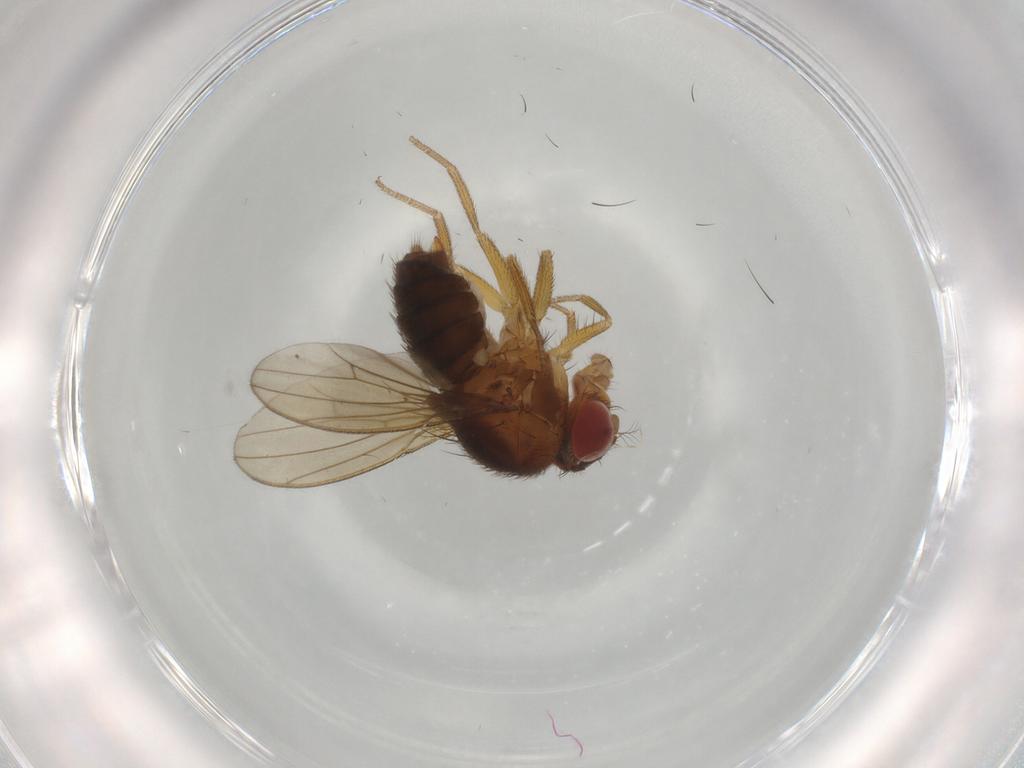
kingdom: Animalia
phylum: Arthropoda
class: Insecta
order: Diptera
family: Drosophilidae
